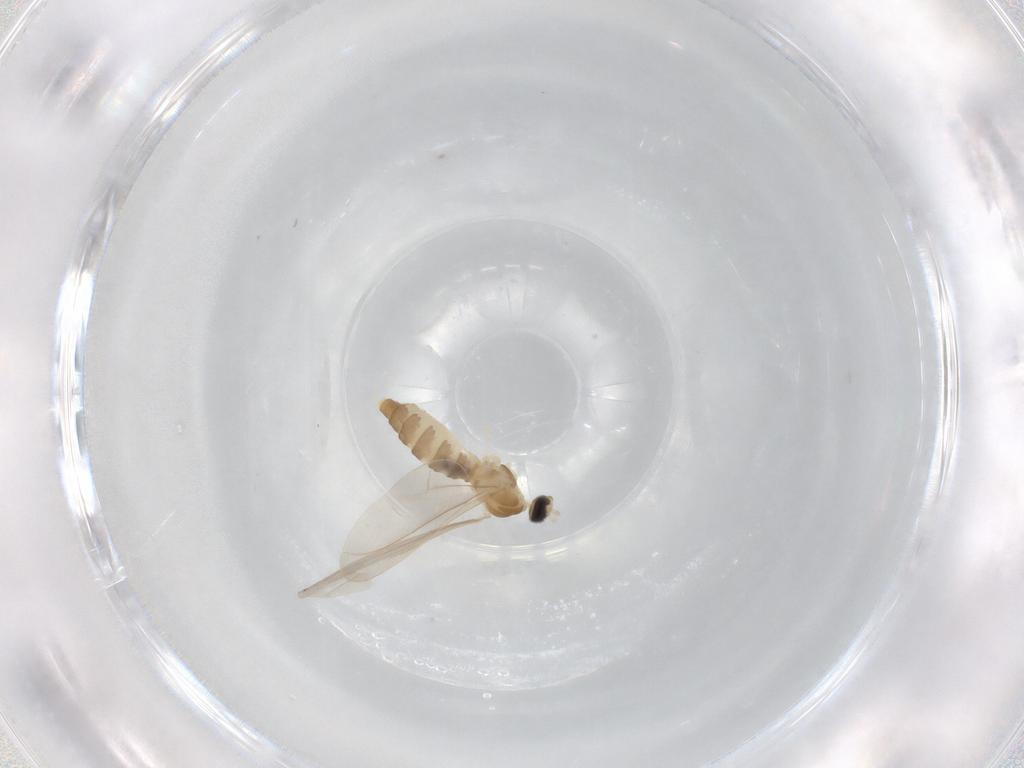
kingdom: Animalia
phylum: Arthropoda
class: Insecta
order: Diptera
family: Cecidomyiidae
